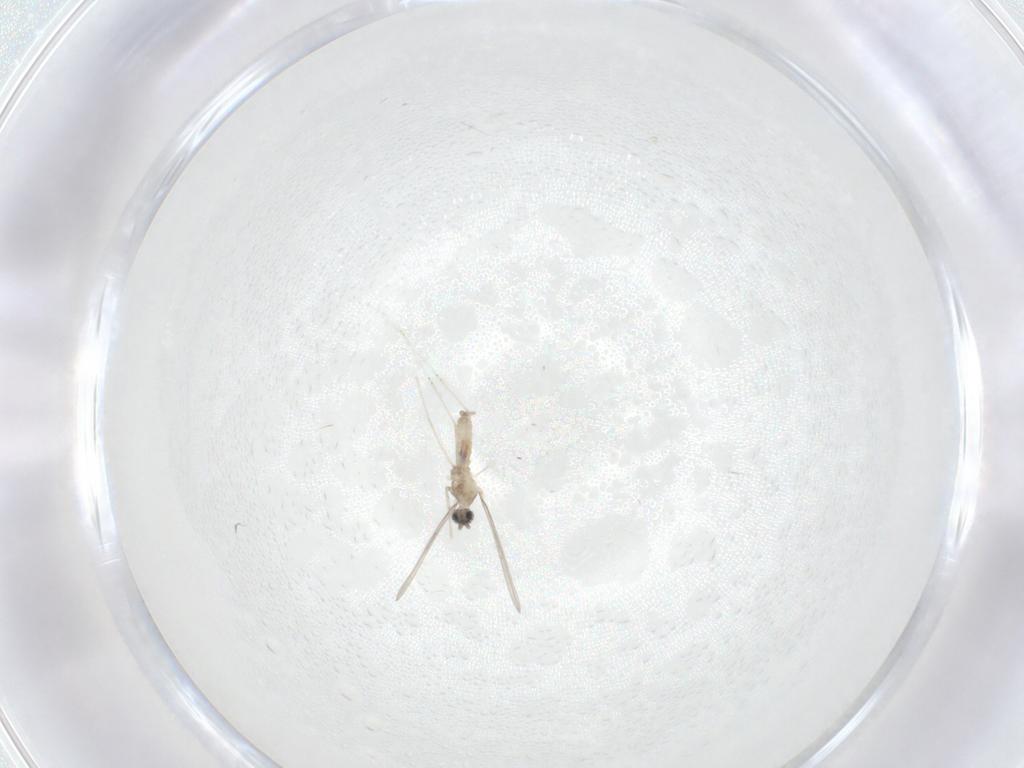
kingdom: Animalia
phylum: Arthropoda
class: Insecta
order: Diptera
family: Cecidomyiidae
